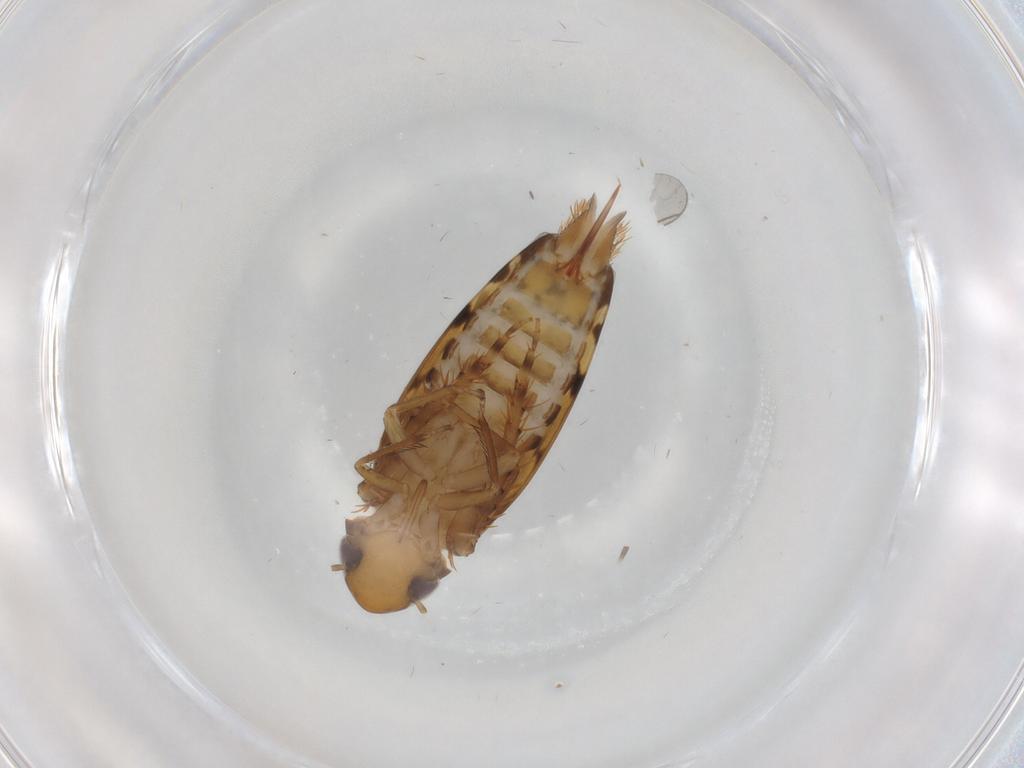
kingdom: Animalia
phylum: Arthropoda
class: Insecta
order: Hemiptera
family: Cicadellidae
